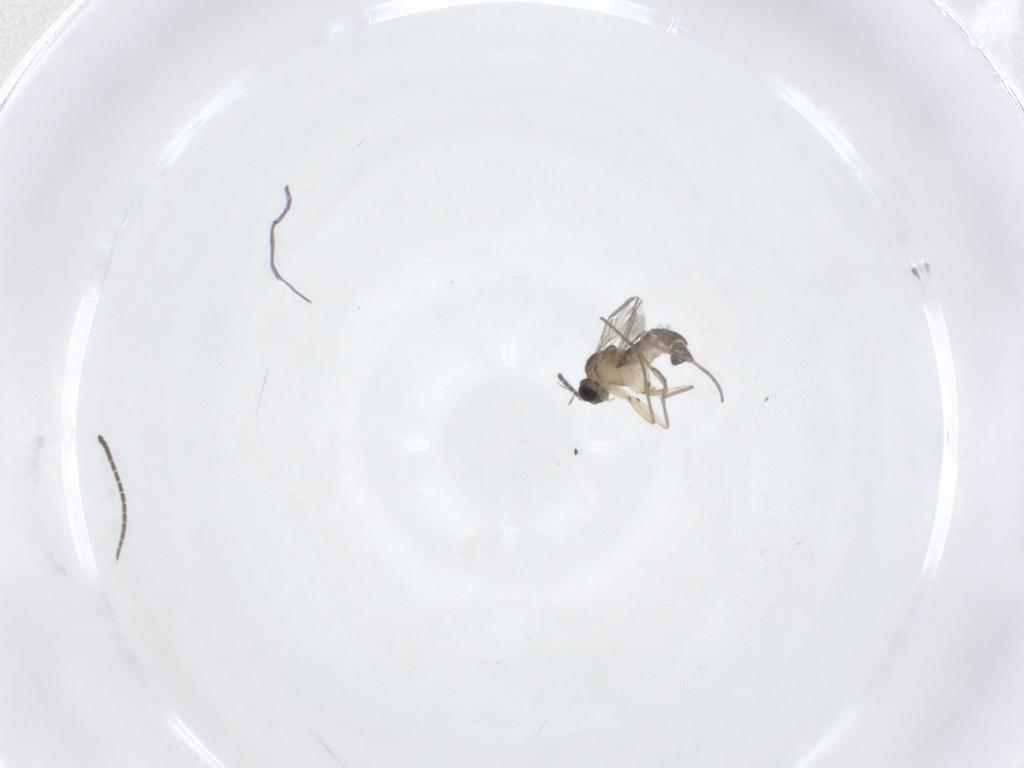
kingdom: Animalia
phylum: Arthropoda
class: Insecta
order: Diptera
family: Sciaridae
